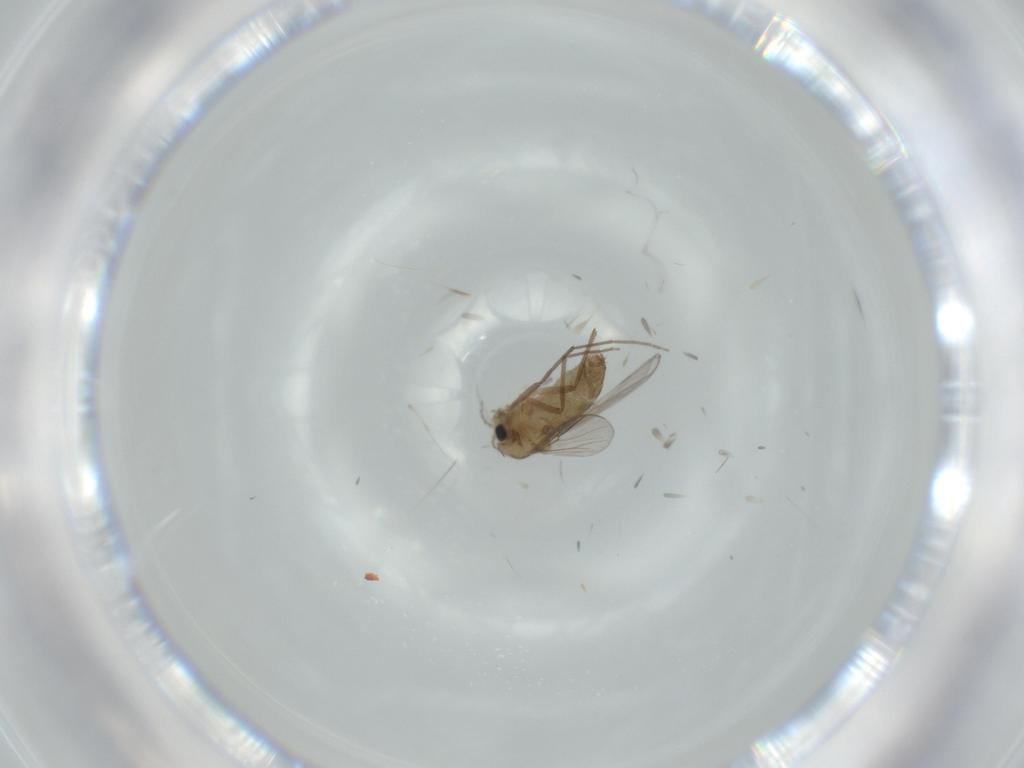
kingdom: Animalia
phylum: Arthropoda
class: Insecta
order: Diptera
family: Chironomidae
